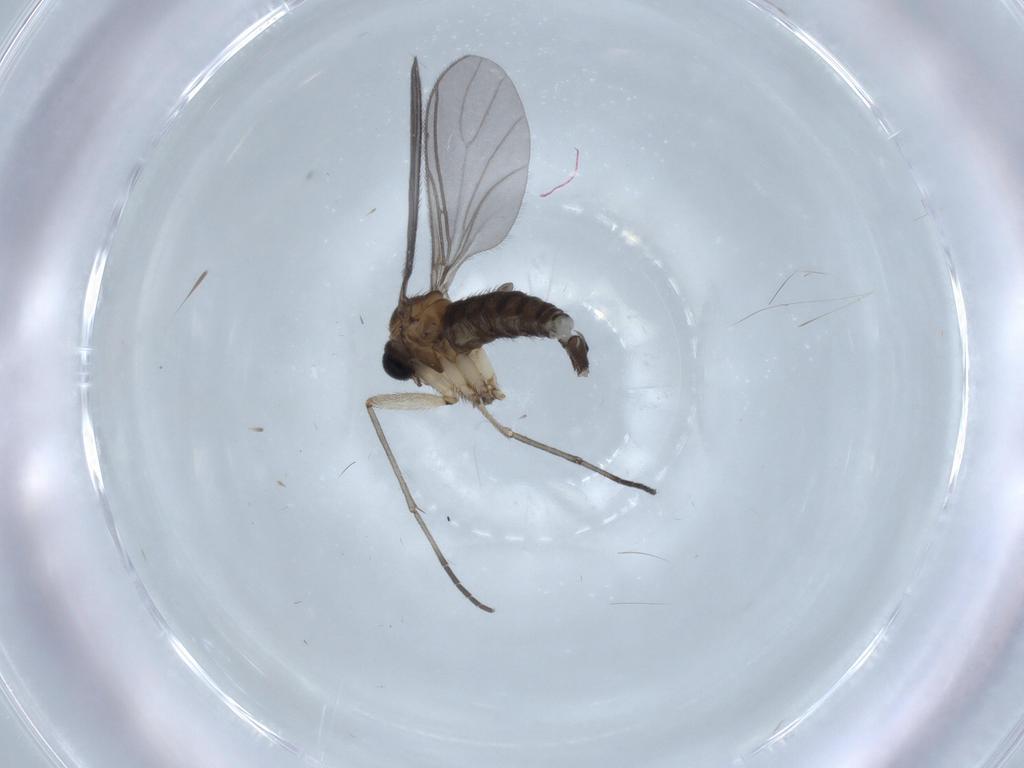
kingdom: Animalia
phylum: Arthropoda
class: Insecta
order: Diptera
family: Sciaridae
